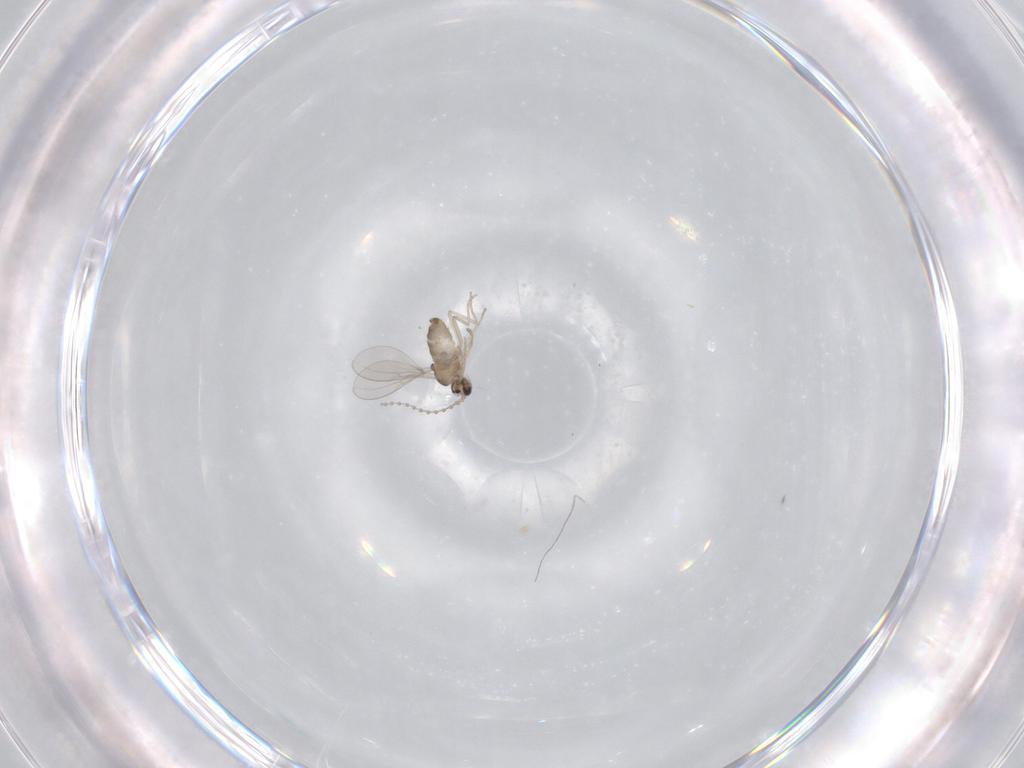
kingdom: Animalia
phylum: Arthropoda
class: Insecta
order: Diptera
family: Cecidomyiidae
